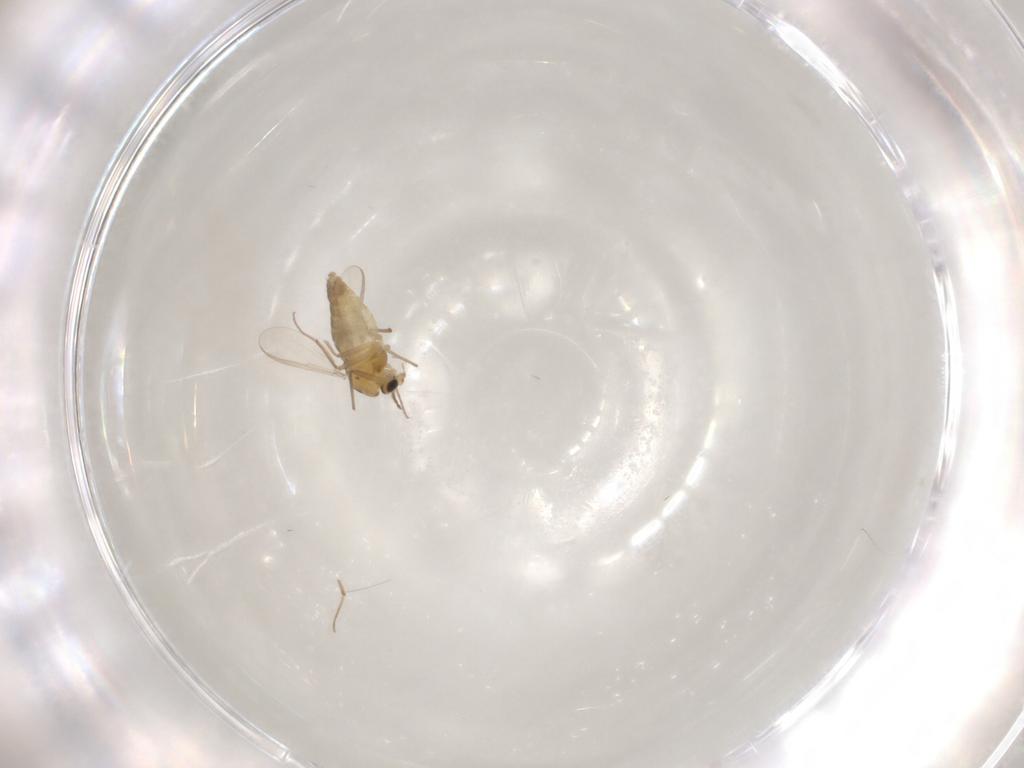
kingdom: Animalia
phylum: Arthropoda
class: Insecta
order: Diptera
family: Chironomidae
